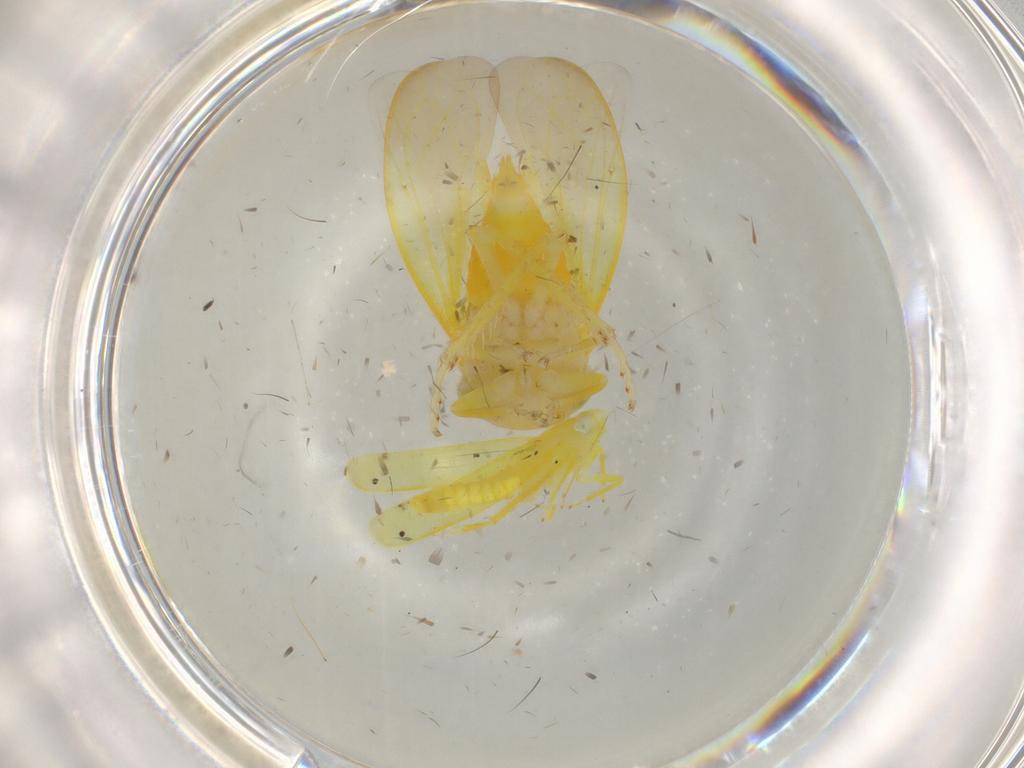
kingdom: Animalia
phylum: Arthropoda
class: Insecta
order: Hemiptera
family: Cicadellidae
